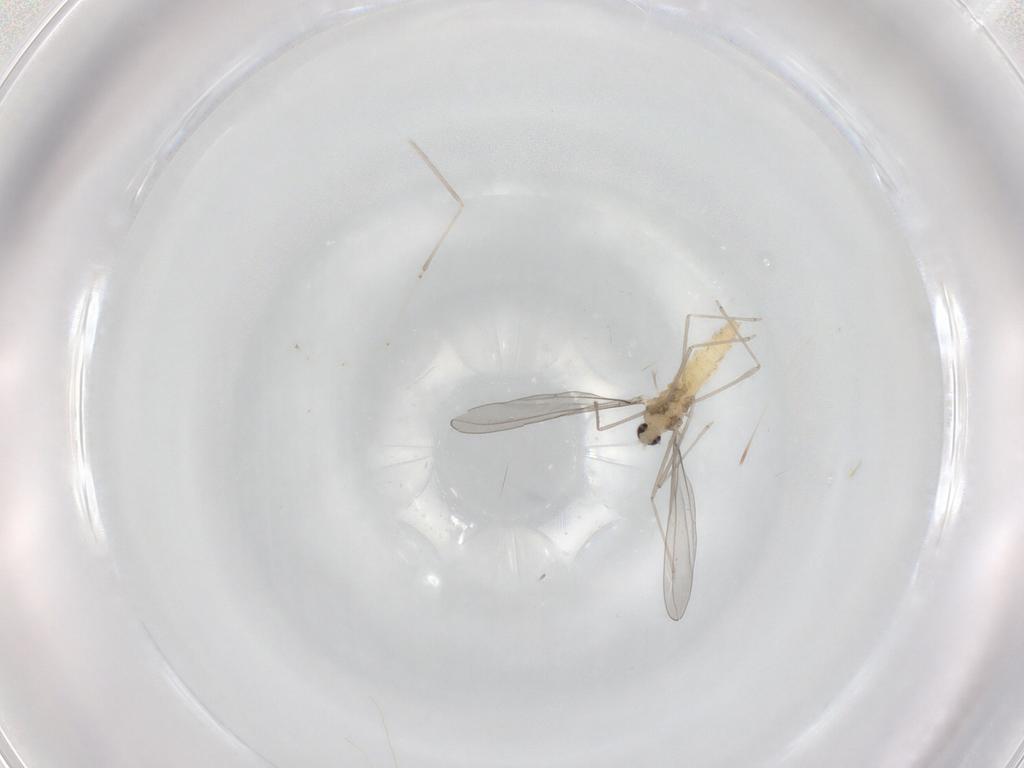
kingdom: Animalia
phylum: Arthropoda
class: Insecta
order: Diptera
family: Cecidomyiidae
